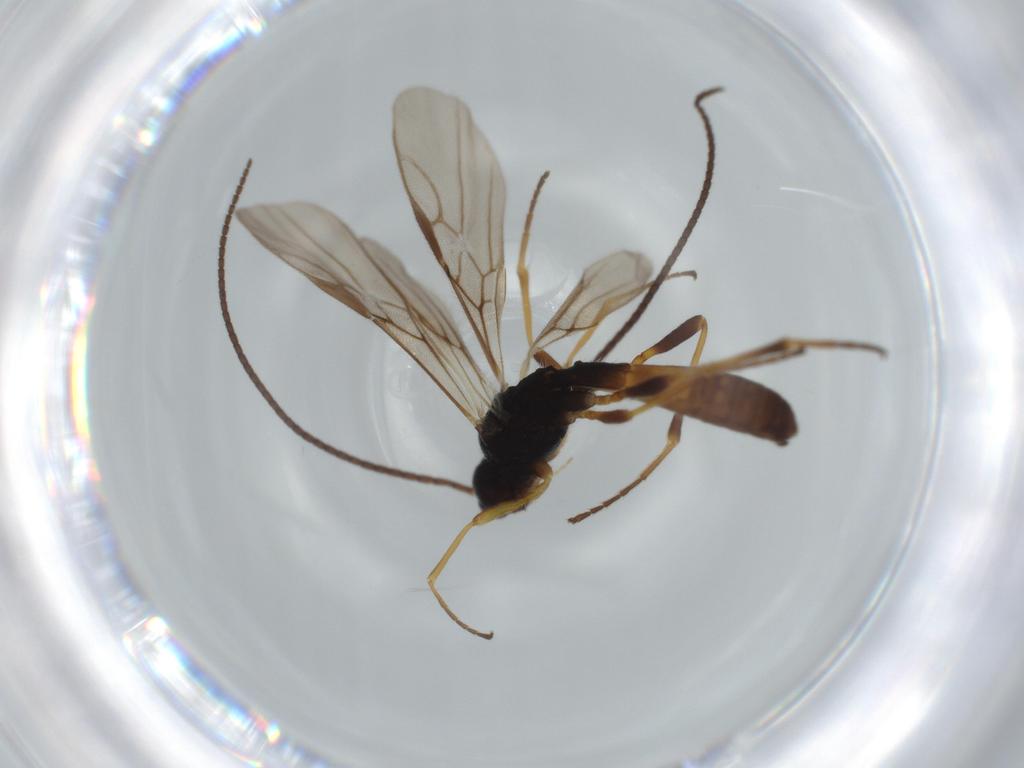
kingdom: Animalia
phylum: Arthropoda
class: Insecta
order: Hymenoptera
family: Braconidae
